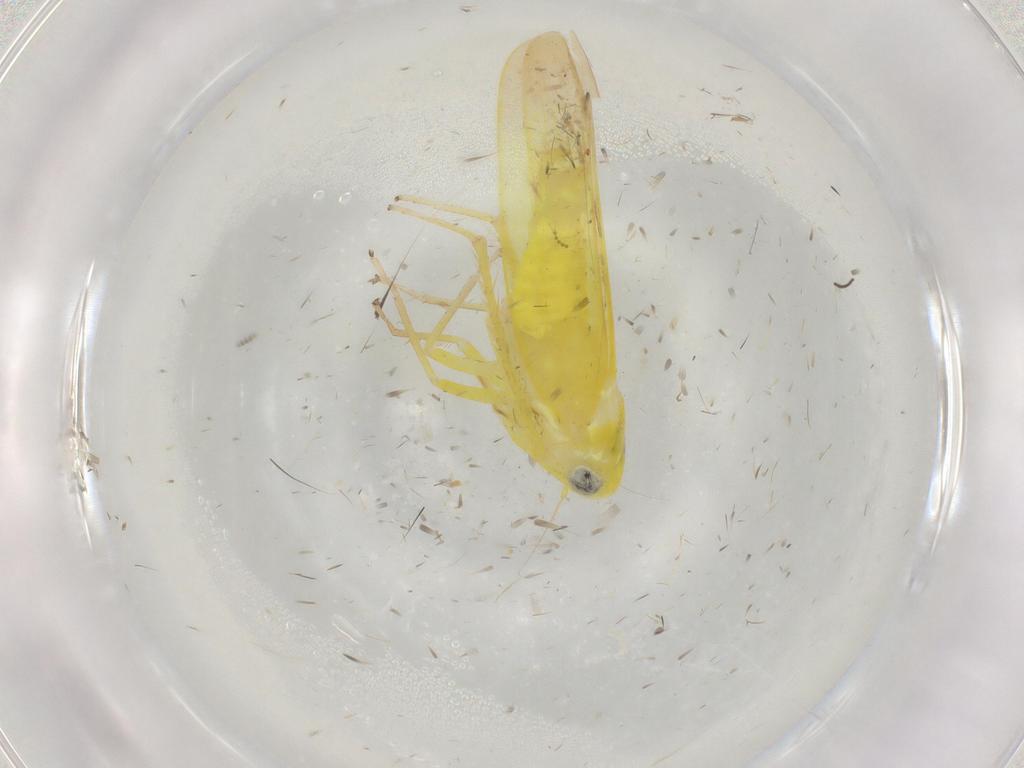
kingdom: Animalia
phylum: Arthropoda
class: Insecta
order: Hemiptera
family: Cicadellidae
